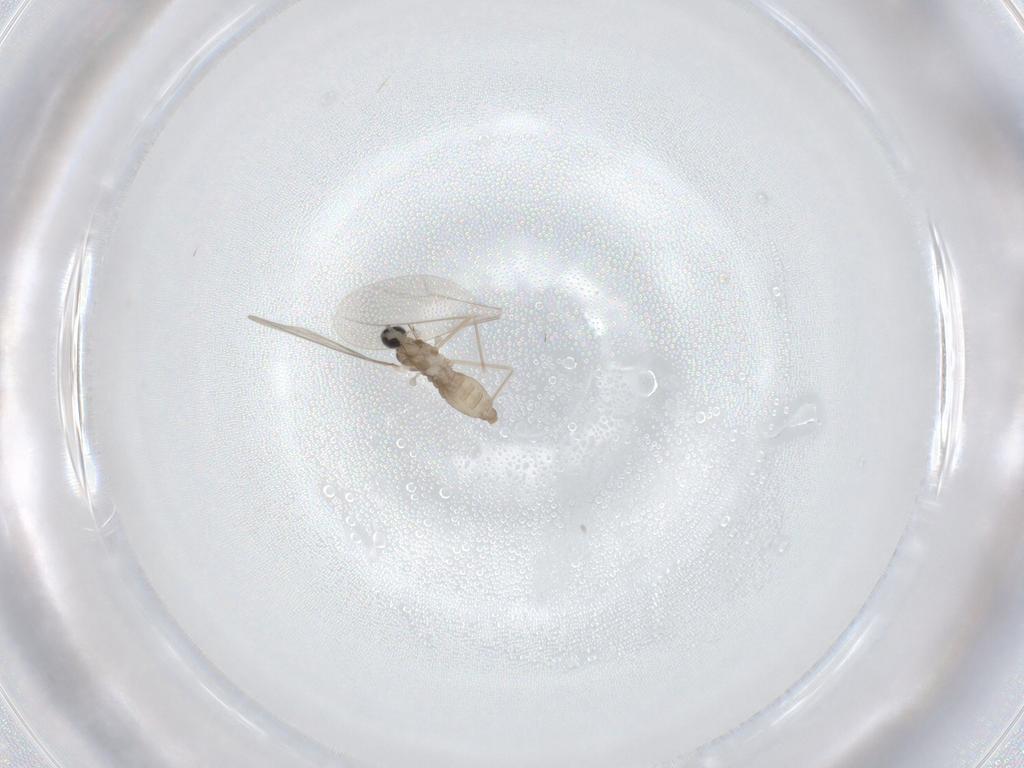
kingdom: Animalia
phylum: Arthropoda
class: Insecta
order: Diptera
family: Cecidomyiidae
